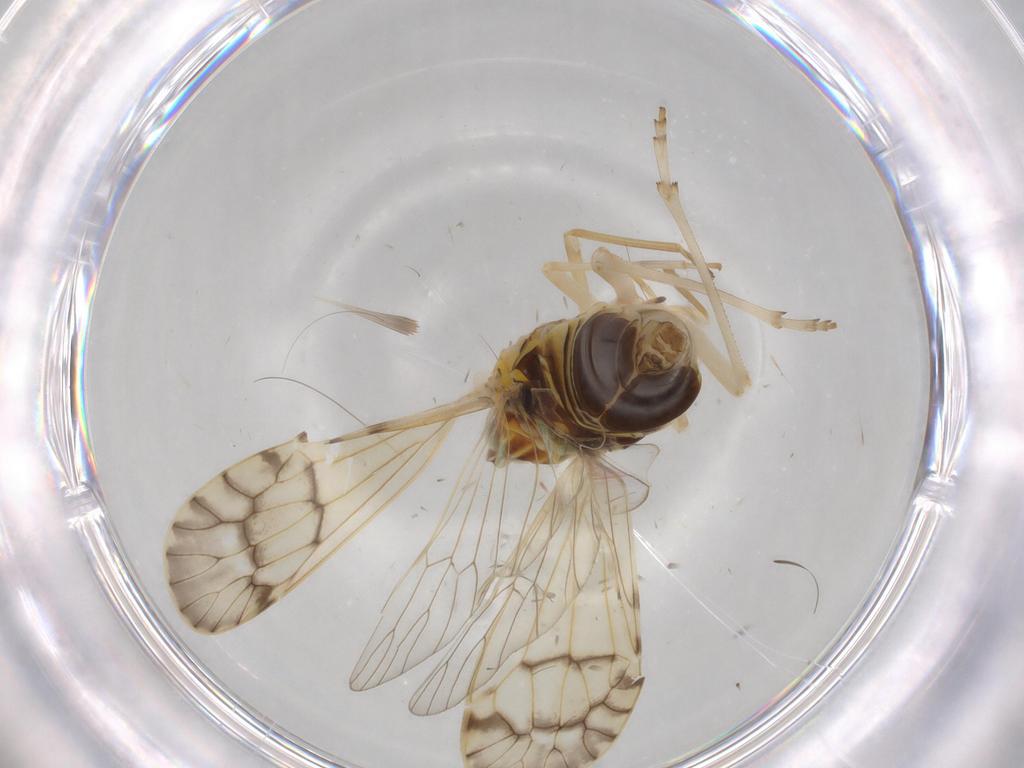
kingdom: Animalia
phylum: Arthropoda
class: Insecta
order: Hemiptera
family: Kinnaridae
